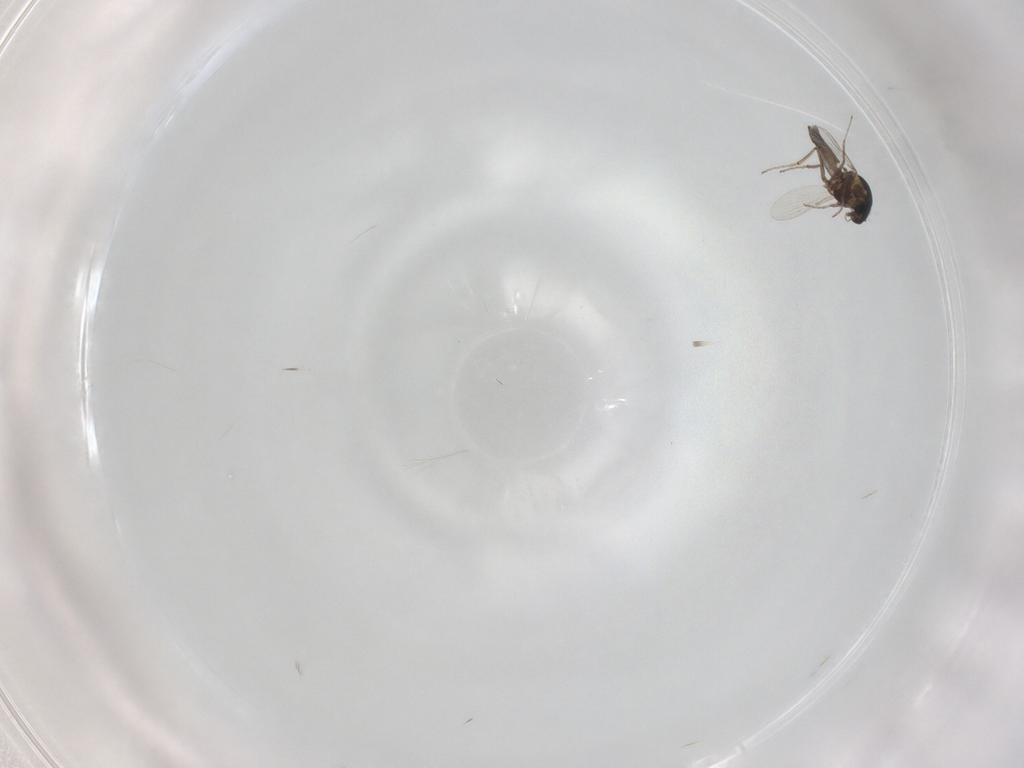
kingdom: Animalia
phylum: Arthropoda
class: Insecta
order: Diptera
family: Ceratopogonidae
